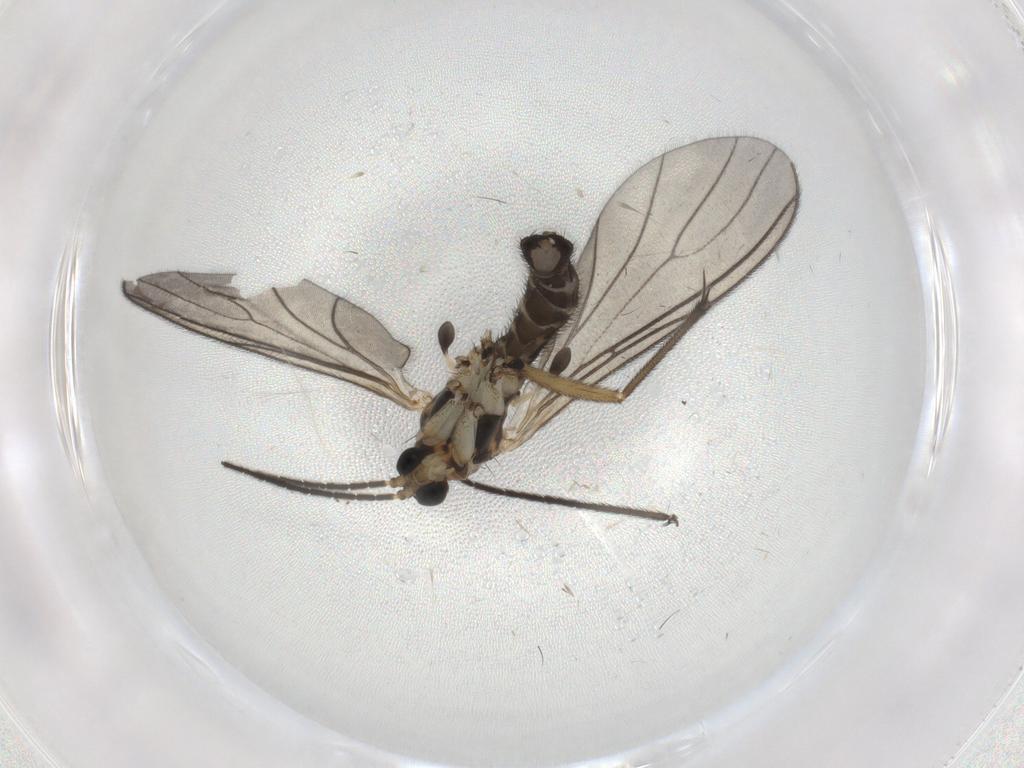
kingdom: Animalia
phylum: Arthropoda
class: Insecta
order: Diptera
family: Sciaridae
